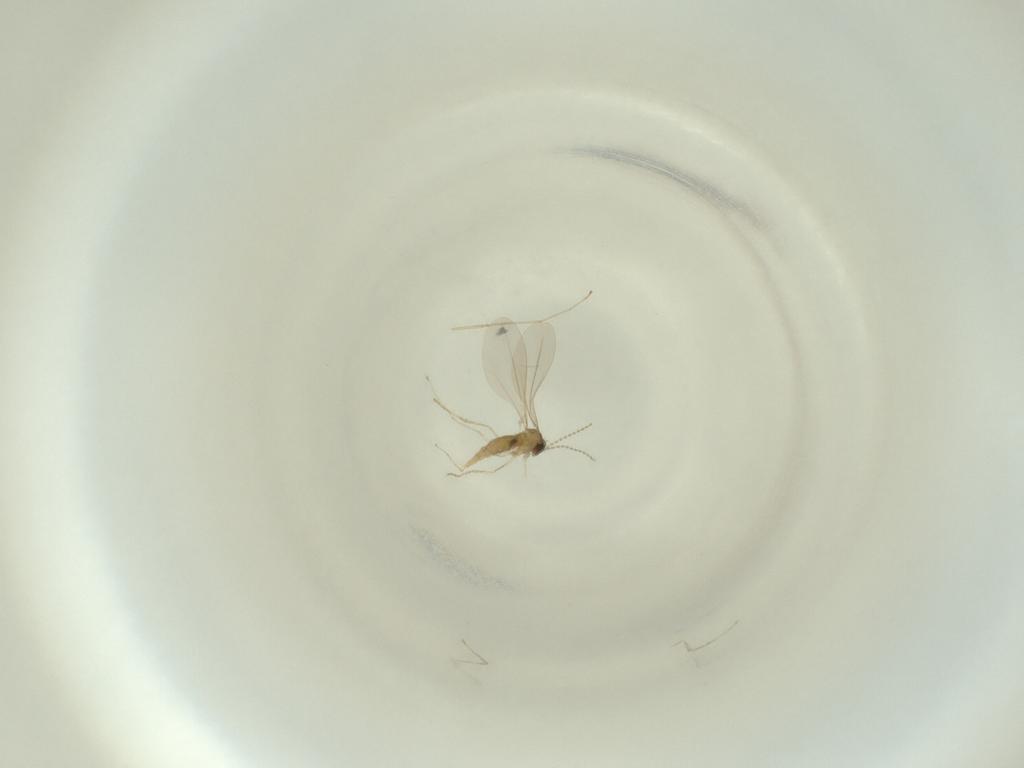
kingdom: Animalia
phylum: Arthropoda
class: Insecta
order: Diptera
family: Cecidomyiidae
